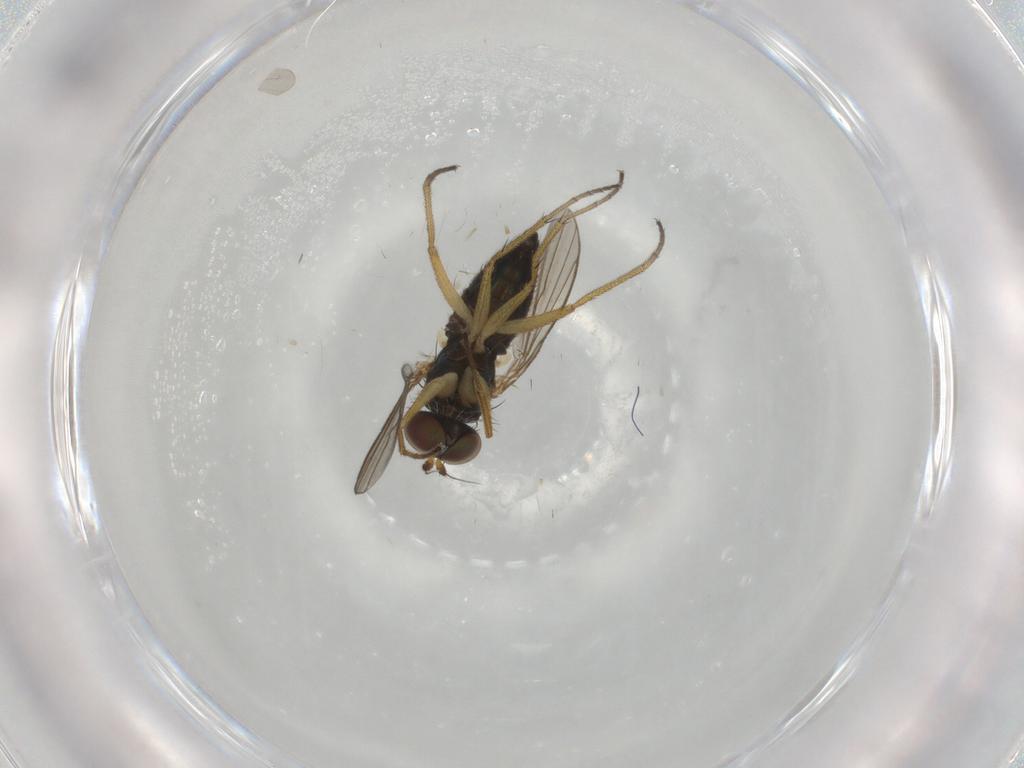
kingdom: Animalia
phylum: Arthropoda
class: Insecta
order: Diptera
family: Dolichopodidae
